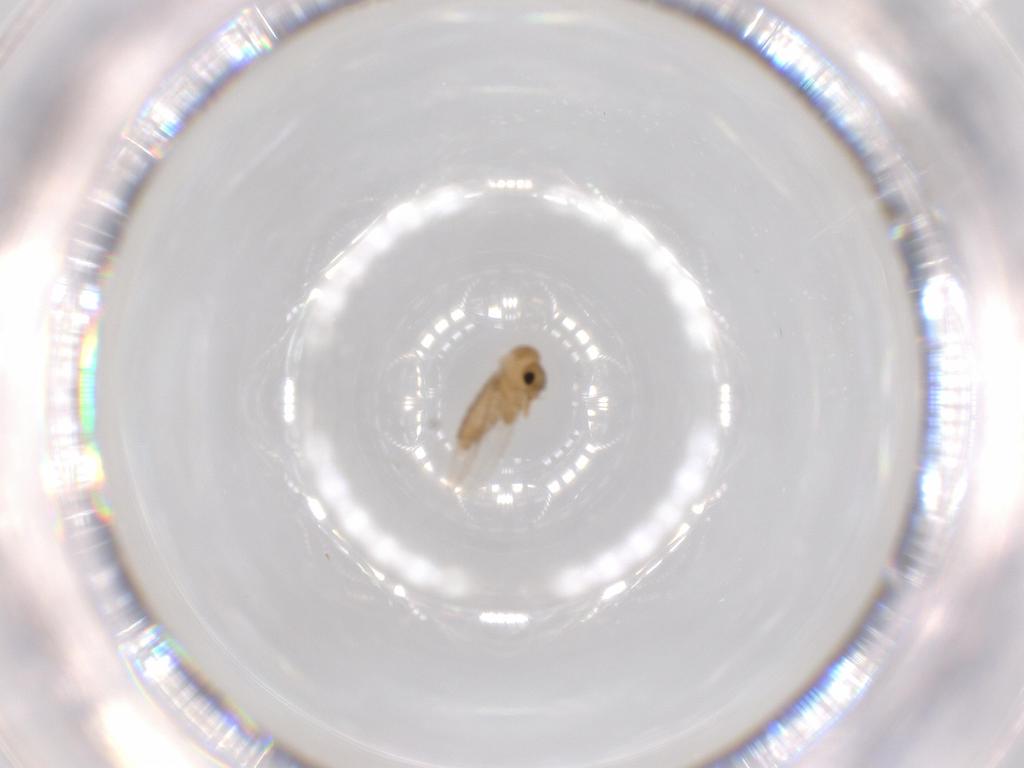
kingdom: Animalia
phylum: Arthropoda
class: Insecta
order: Diptera
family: Psychodidae
